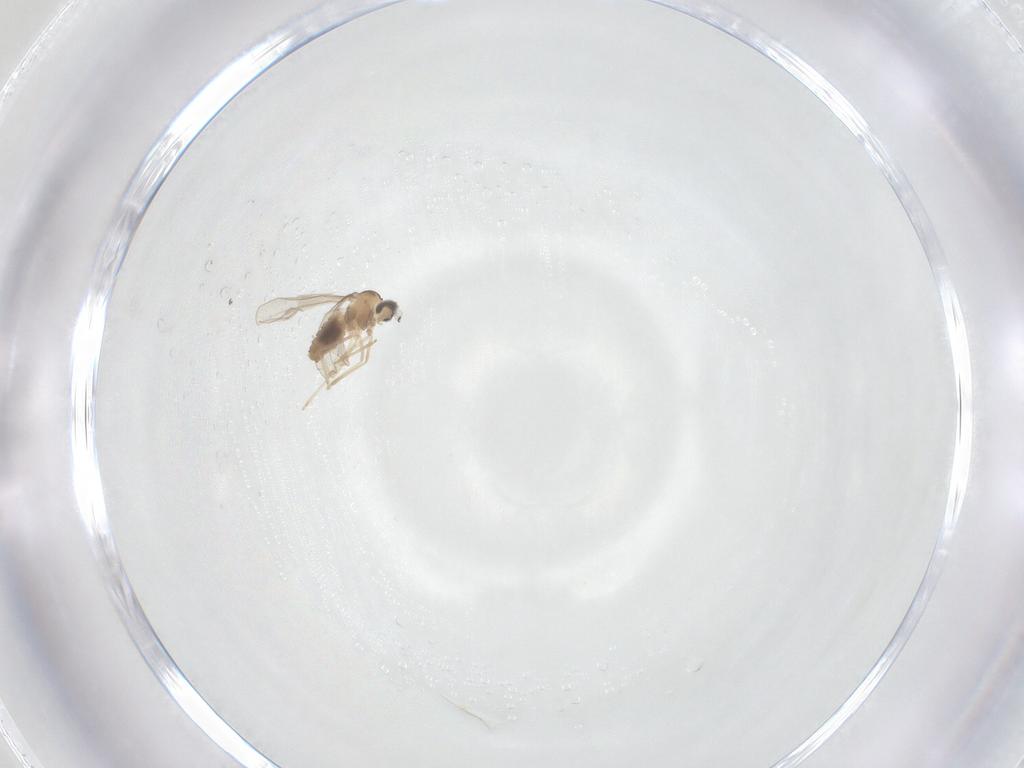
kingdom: Animalia
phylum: Arthropoda
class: Insecta
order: Diptera
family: Cecidomyiidae
